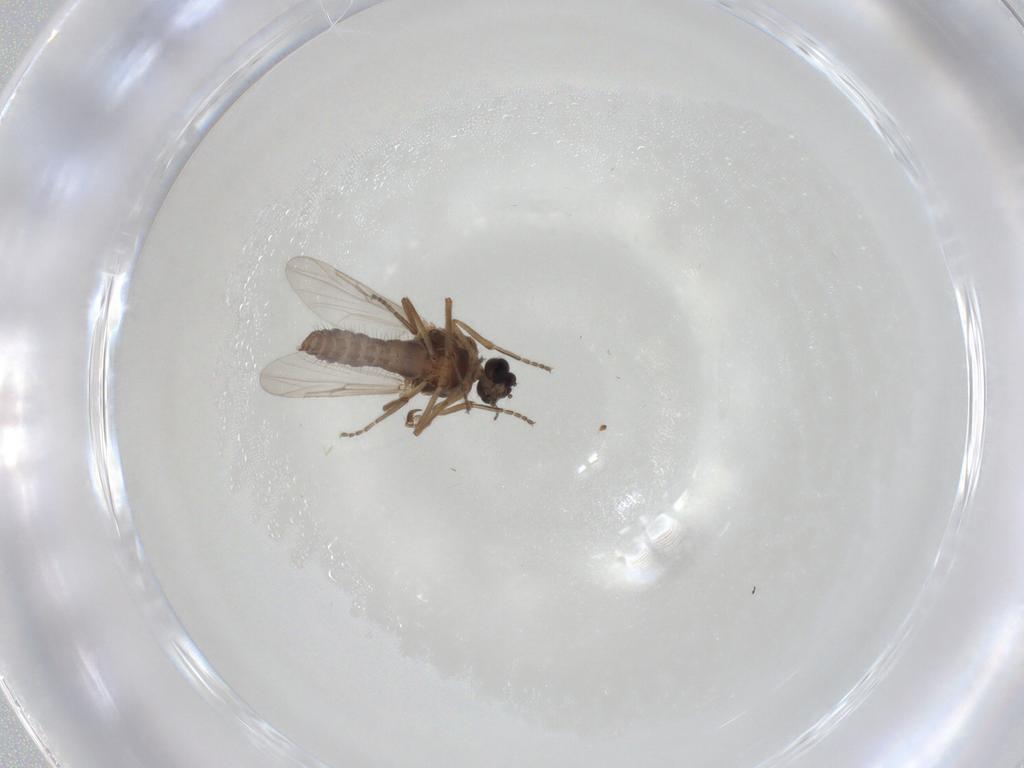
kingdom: Animalia
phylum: Arthropoda
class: Insecta
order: Diptera
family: Ceratopogonidae
